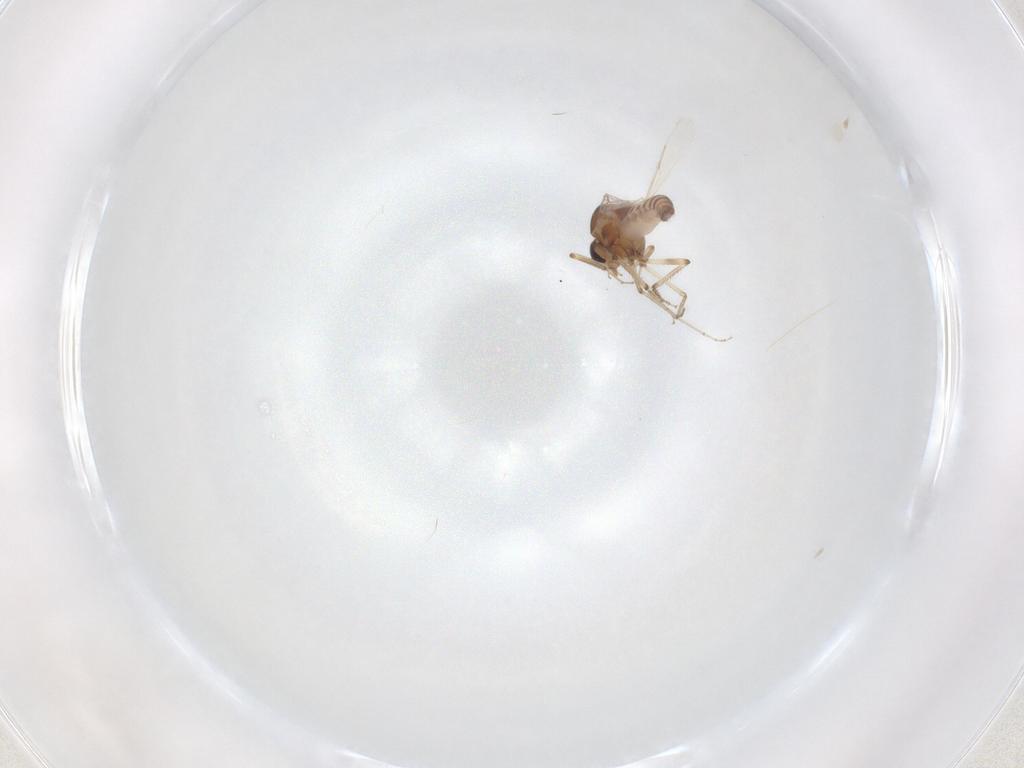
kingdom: Animalia
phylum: Arthropoda
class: Insecta
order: Diptera
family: Ceratopogonidae
